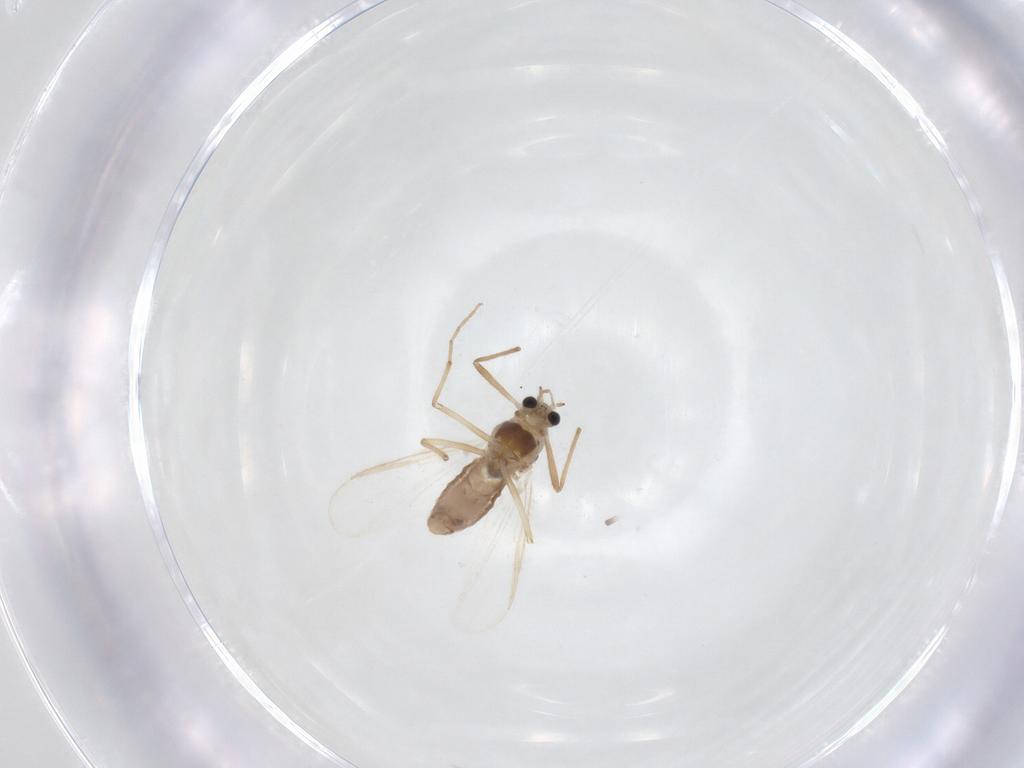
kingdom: Animalia
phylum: Arthropoda
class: Insecta
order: Diptera
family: Chironomidae
